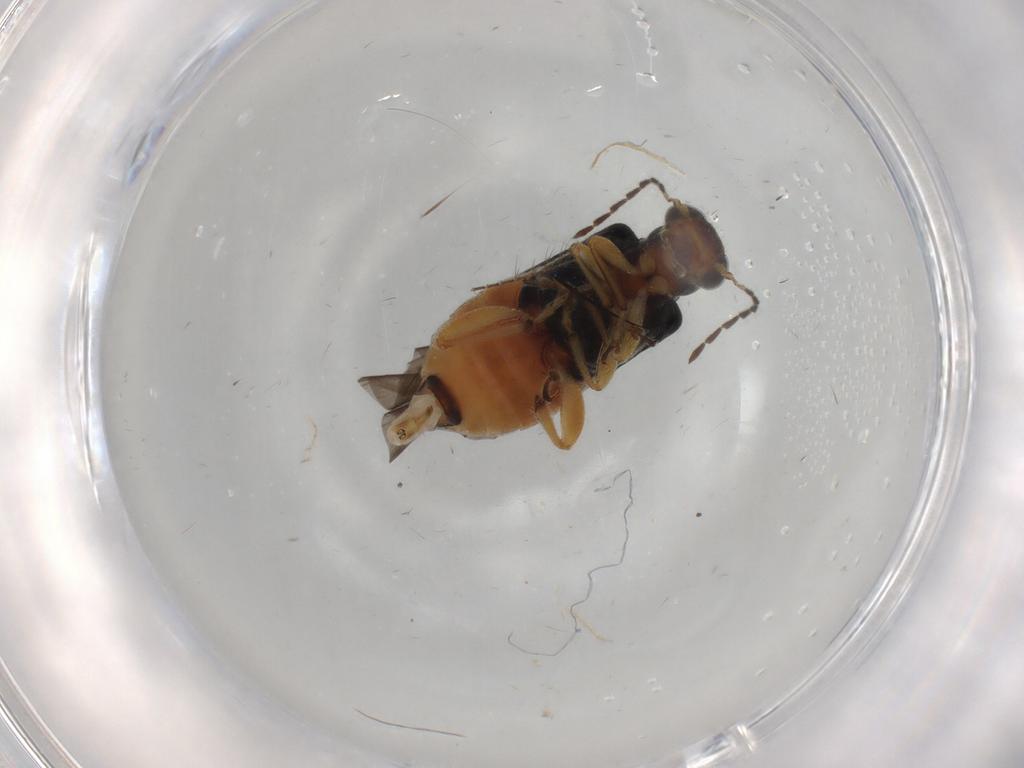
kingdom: Animalia
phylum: Arthropoda
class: Insecta
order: Coleoptera
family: Chrysomelidae
